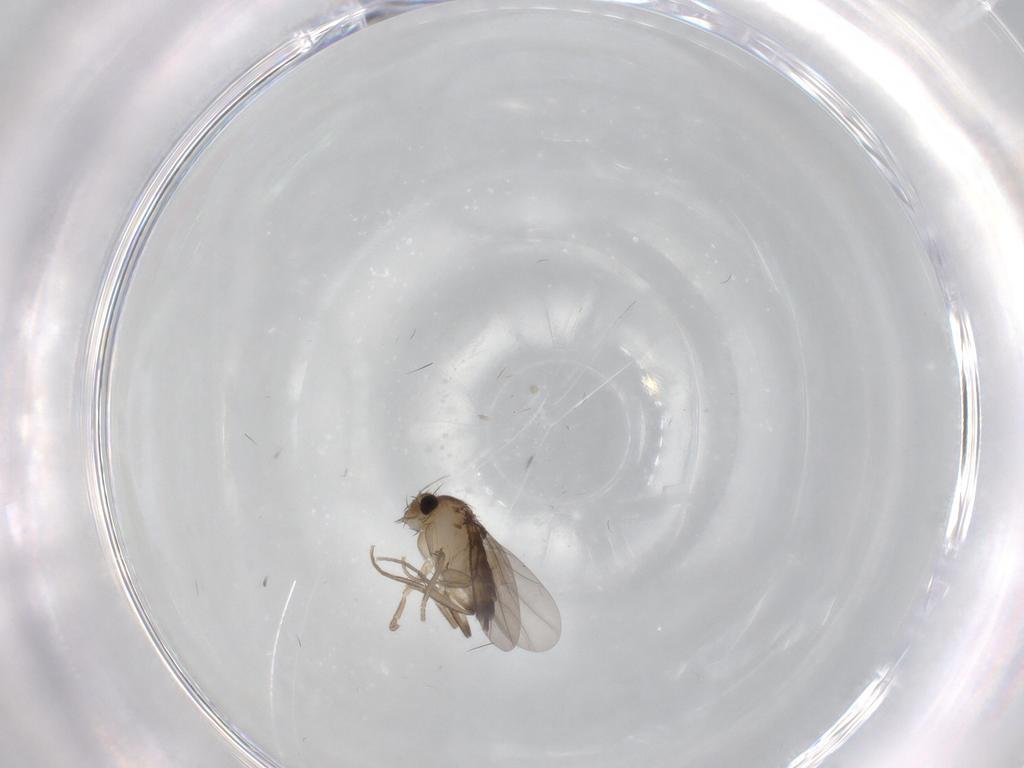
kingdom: Animalia
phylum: Arthropoda
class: Insecta
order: Diptera
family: Phoridae
